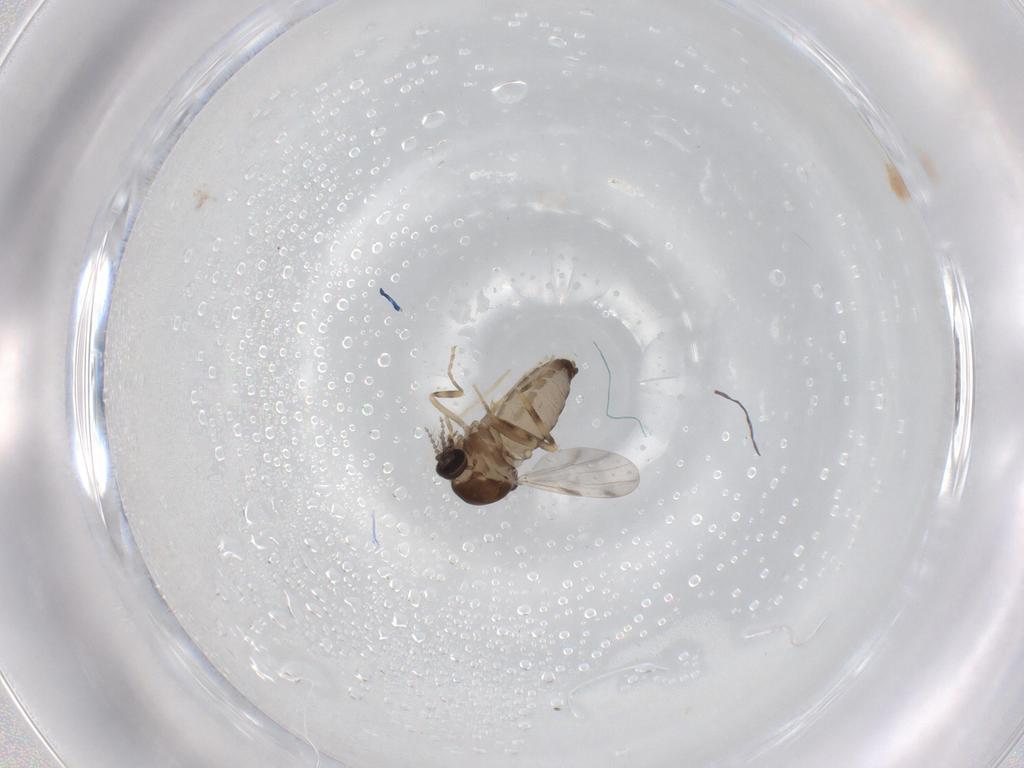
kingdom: Animalia
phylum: Arthropoda
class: Insecta
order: Diptera
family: Ceratopogonidae
